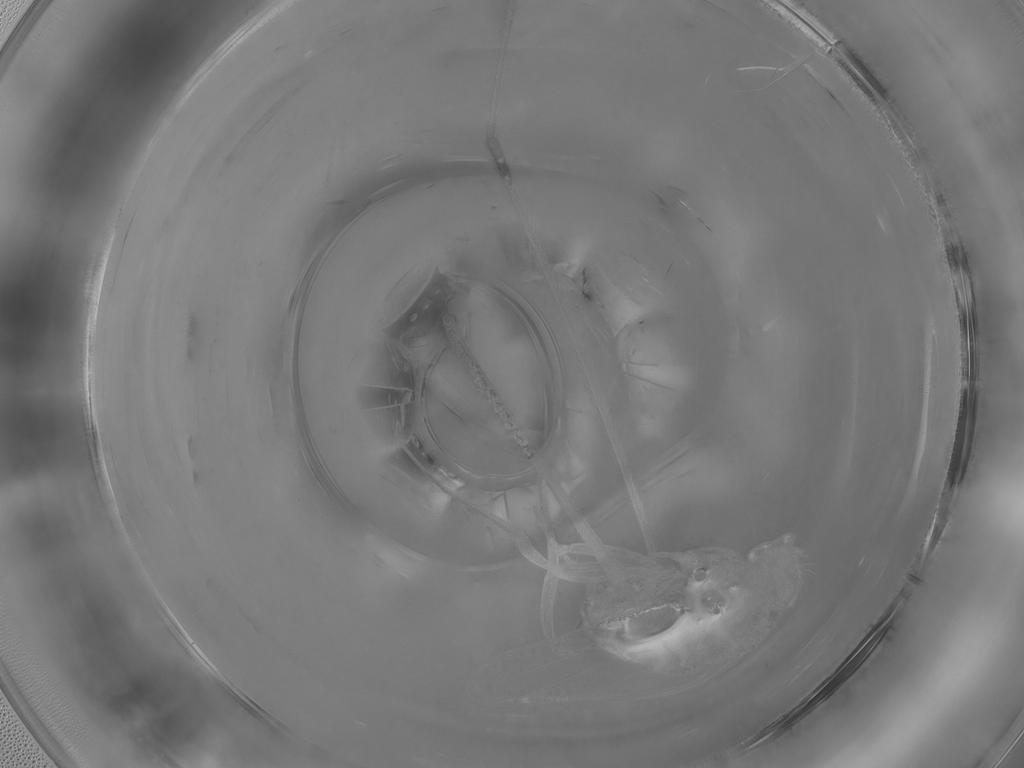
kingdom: Animalia
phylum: Arthropoda
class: Insecta
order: Diptera
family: Limoniidae
